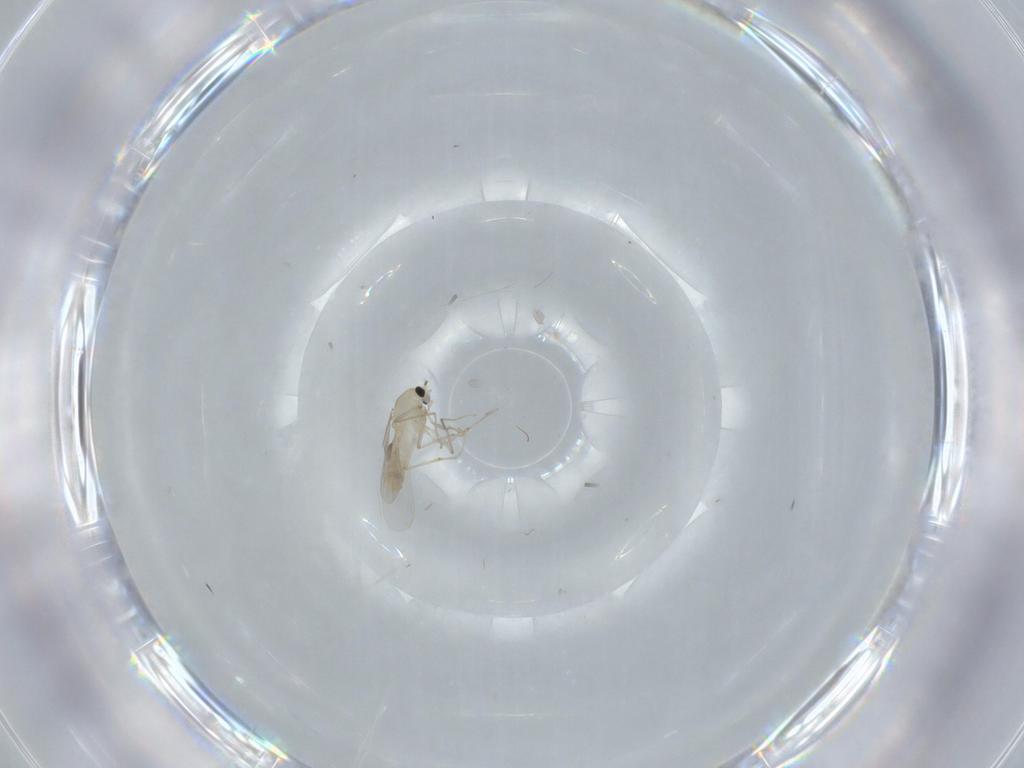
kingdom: Animalia
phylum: Arthropoda
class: Insecta
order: Diptera
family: Chironomidae
